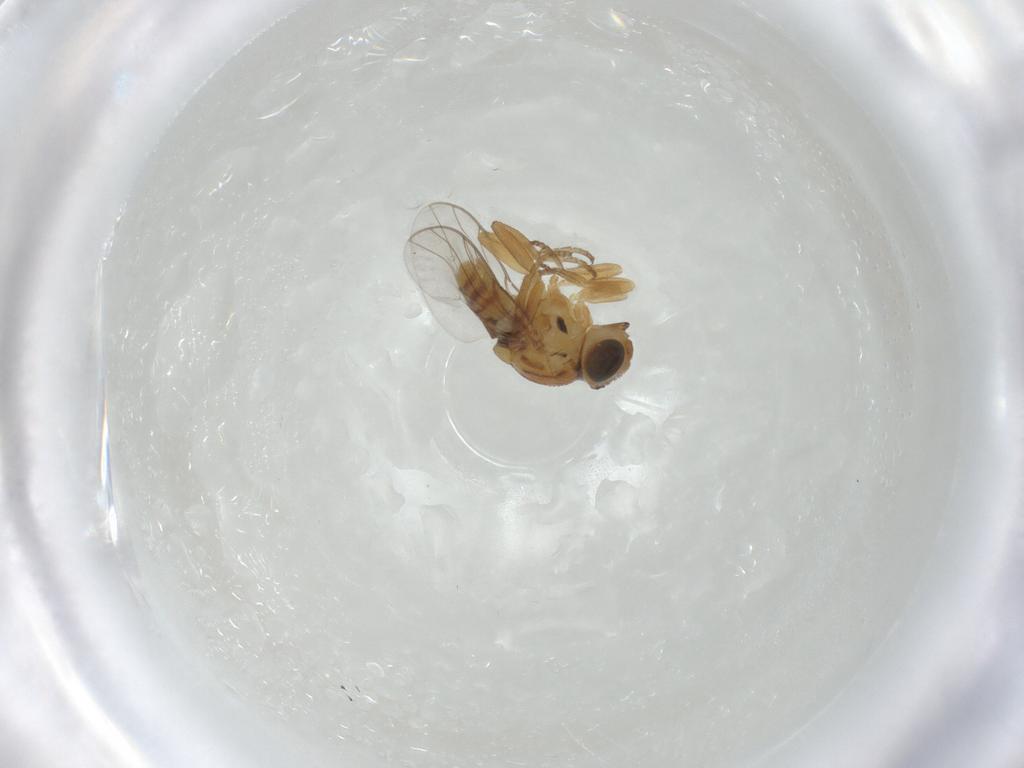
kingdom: Animalia
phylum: Arthropoda
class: Insecta
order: Diptera
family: Chloropidae
